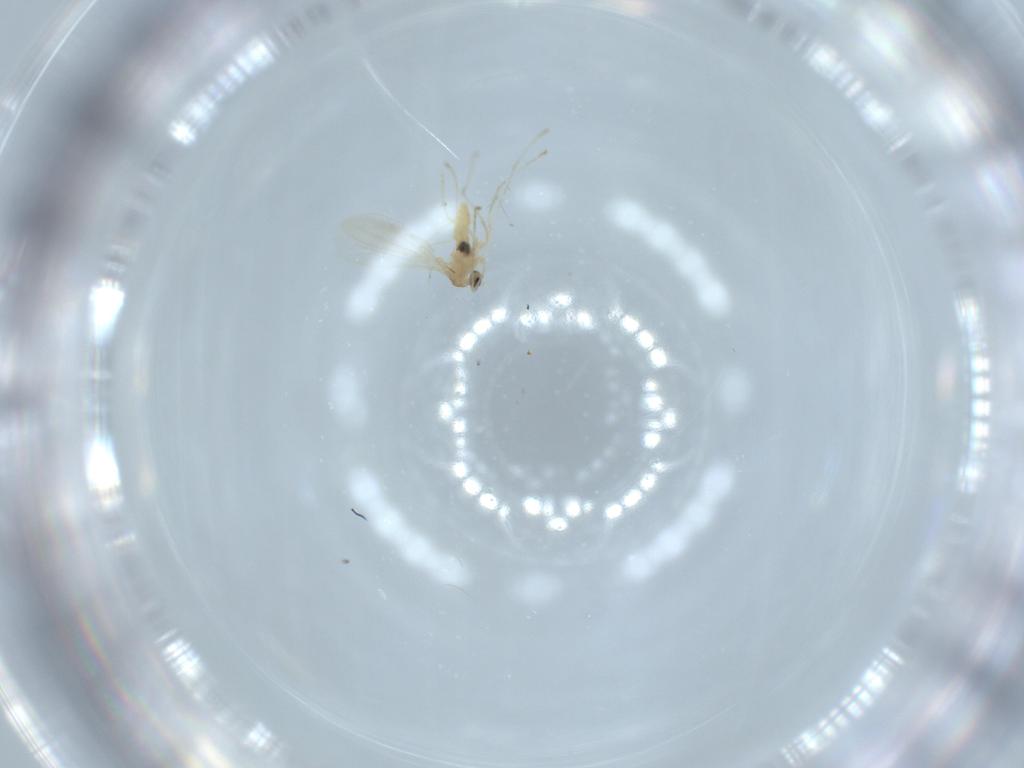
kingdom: Animalia
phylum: Arthropoda
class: Insecta
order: Diptera
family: Cecidomyiidae
